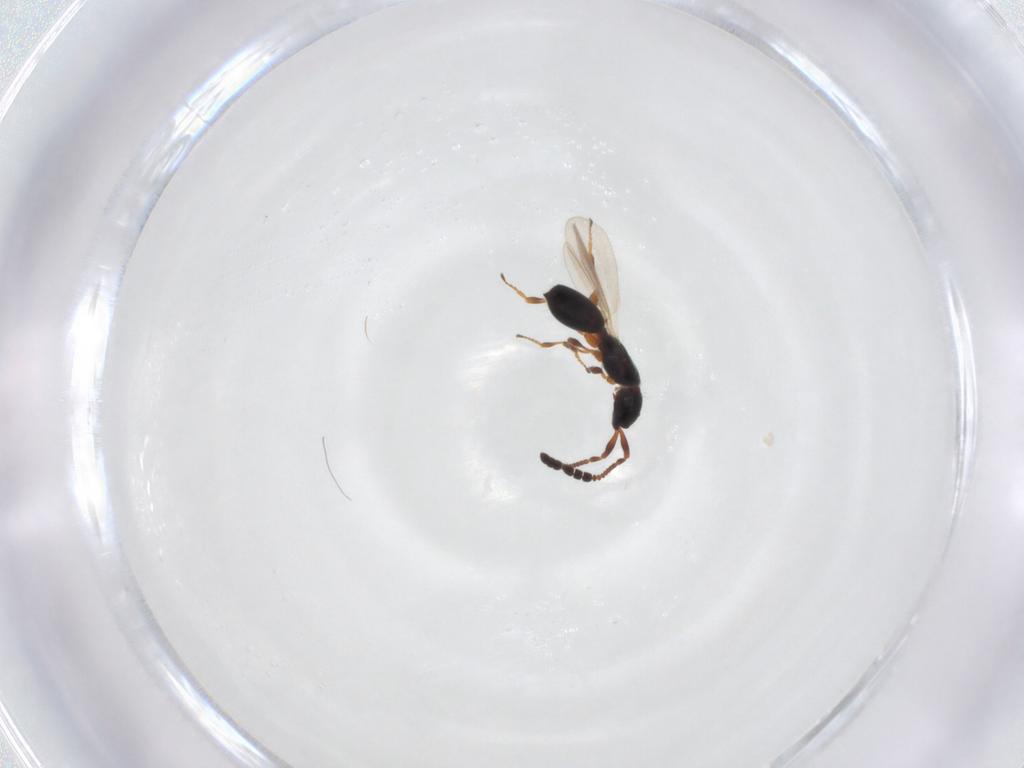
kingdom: Animalia
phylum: Arthropoda
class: Insecta
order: Hymenoptera
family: Diapriidae
